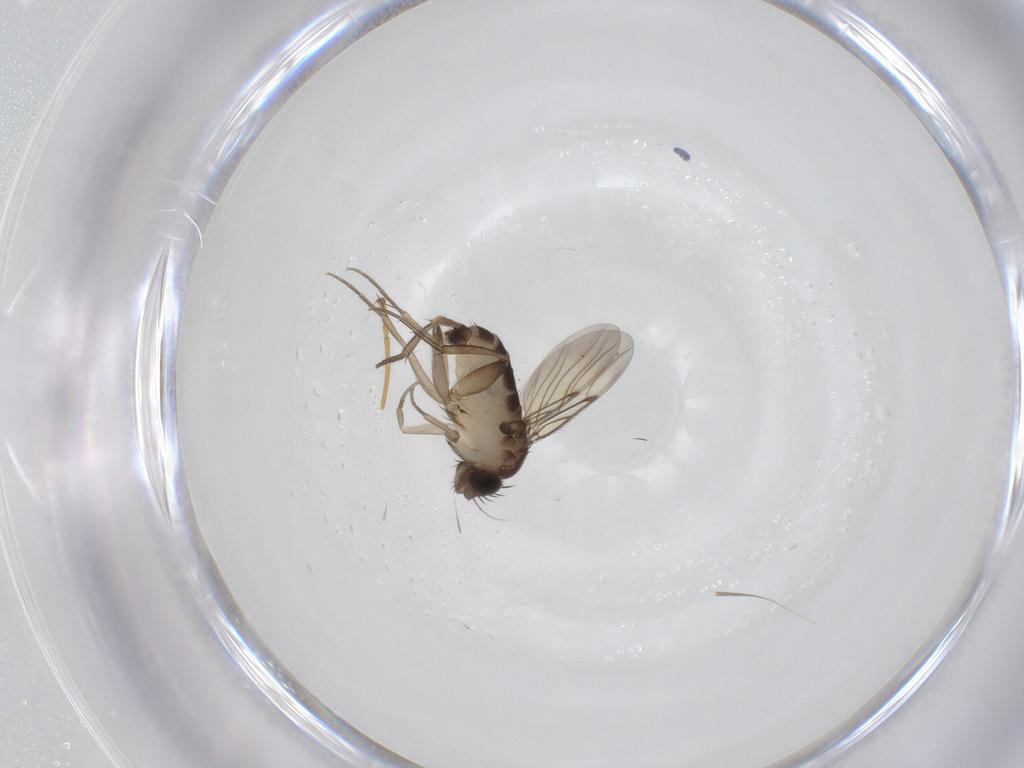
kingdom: Animalia
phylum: Arthropoda
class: Insecta
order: Diptera
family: Phoridae
